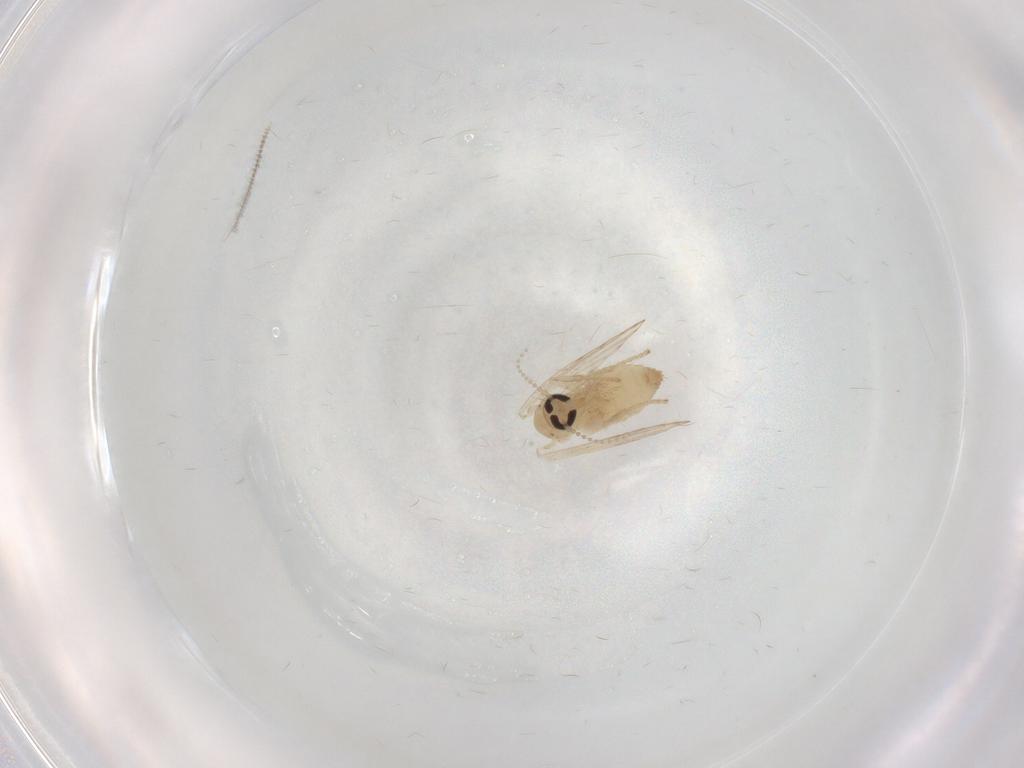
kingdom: Animalia
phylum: Arthropoda
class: Insecta
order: Diptera
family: Psychodidae
